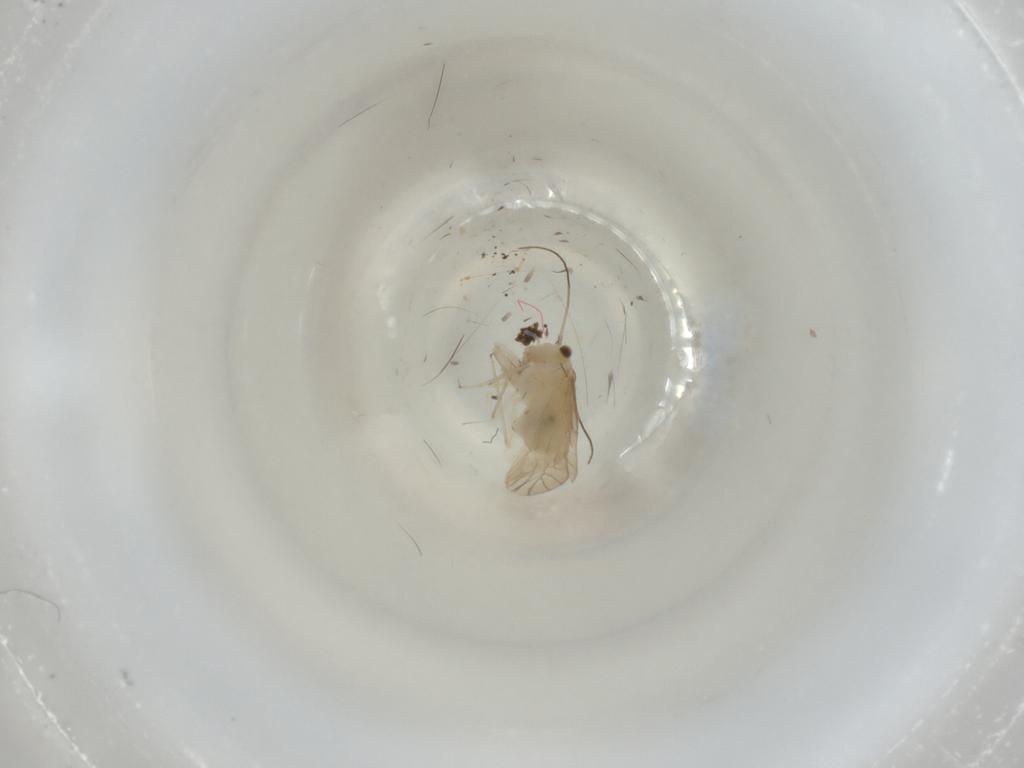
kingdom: Animalia
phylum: Arthropoda
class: Insecta
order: Psocodea
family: Caeciliusidae
